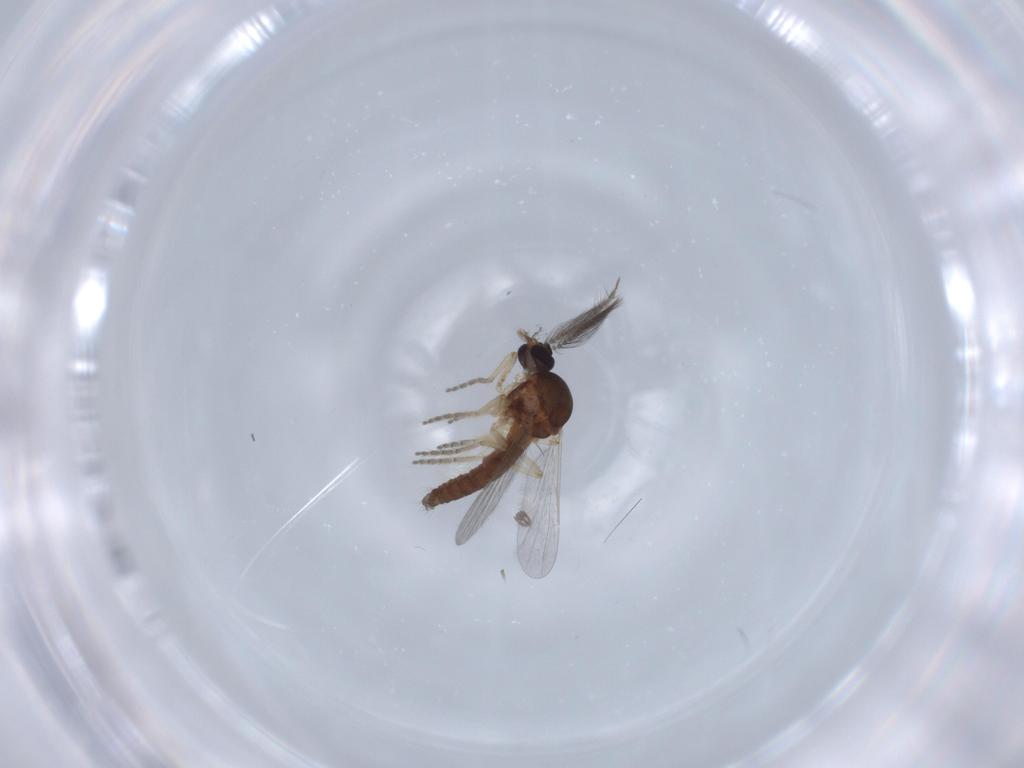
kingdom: Animalia
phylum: Arthropoda
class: Insecta
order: Diptera
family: Ceratopogonidae
